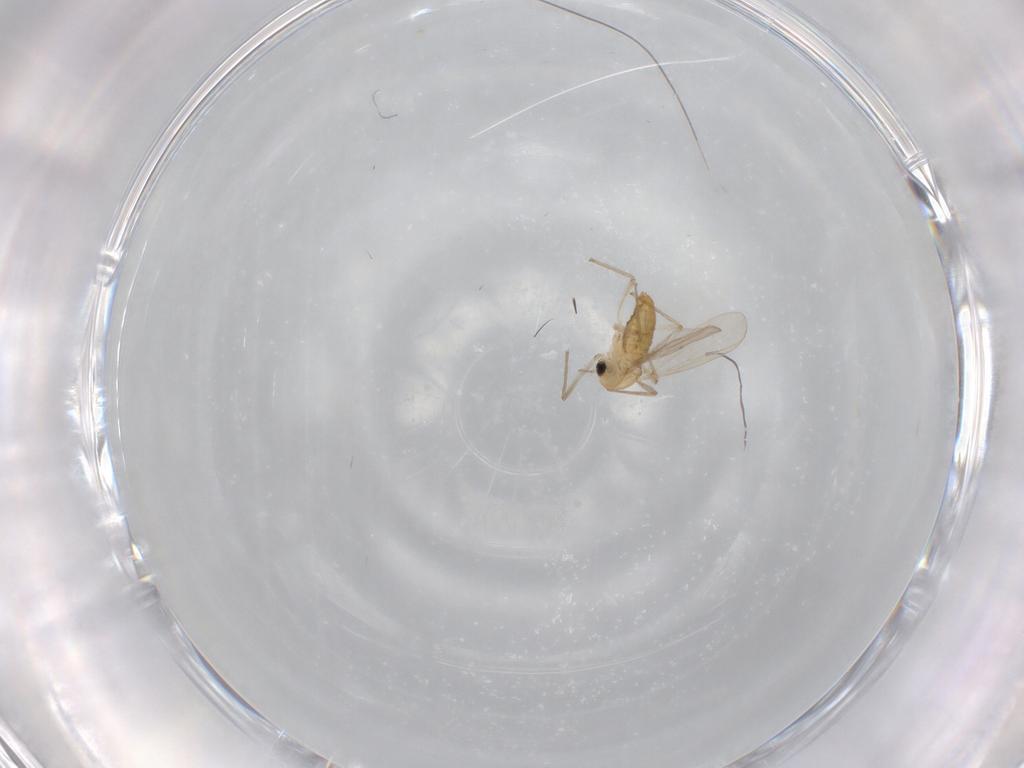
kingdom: Animalia
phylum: Arthropoda
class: Insecta
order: Diptera
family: Chironomidae
